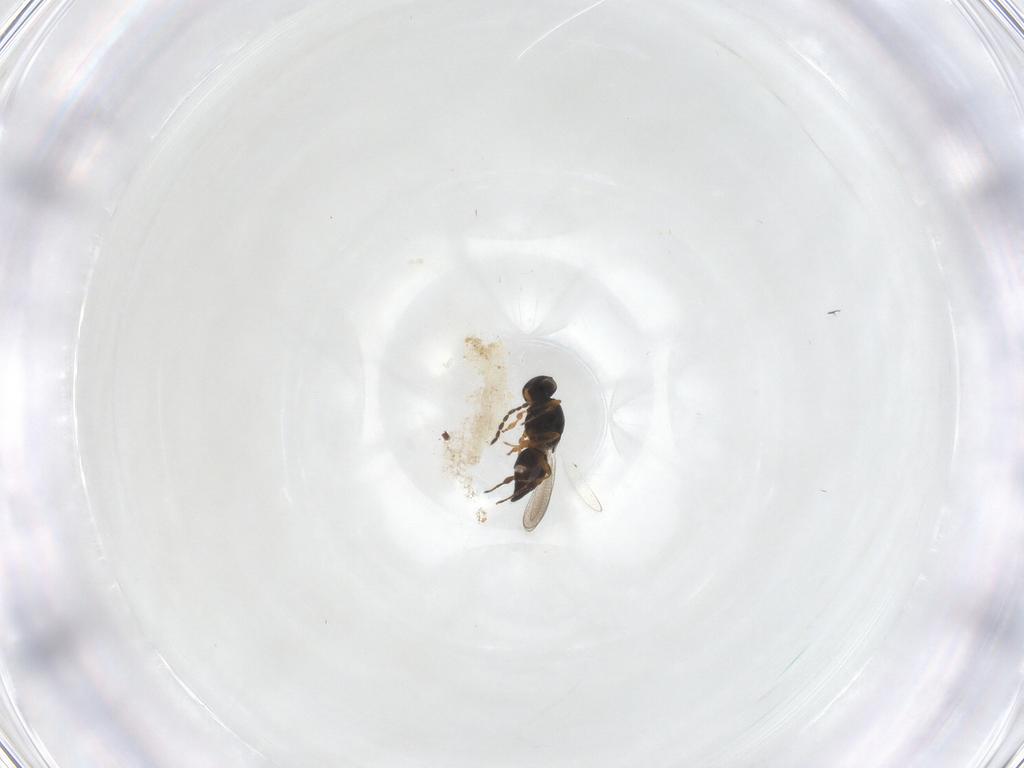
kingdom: Animalia
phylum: Arthropoda
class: Insecta
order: Hymenoptera
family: Platygastridae
